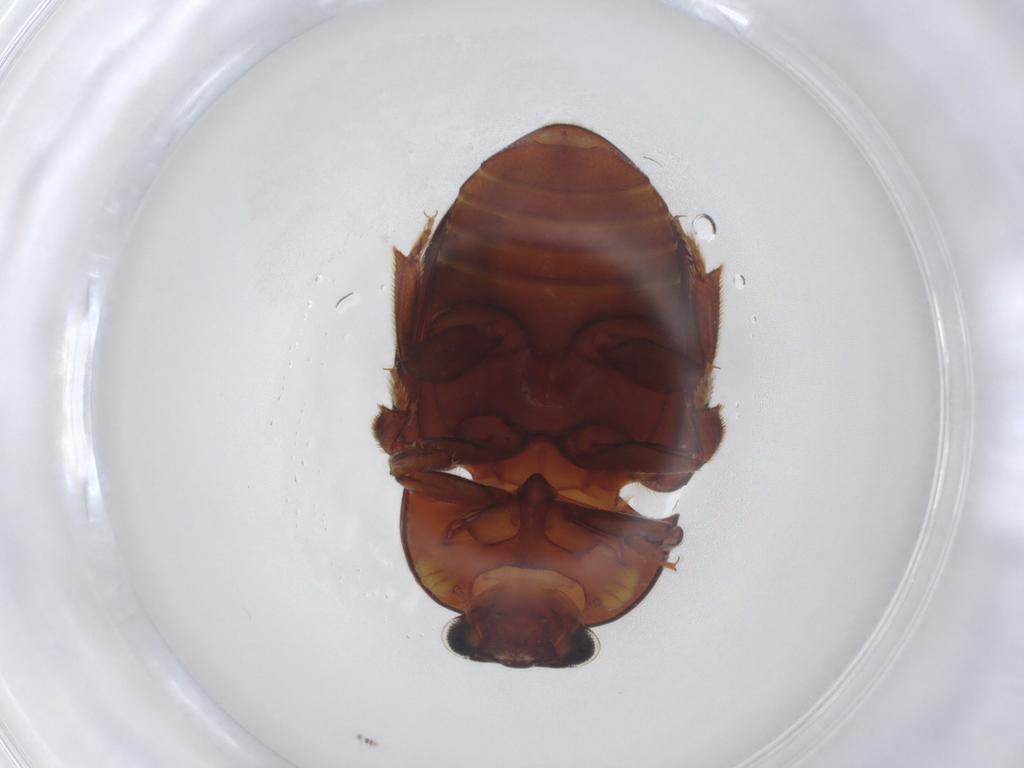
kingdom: Animalia
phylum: Arthropoda
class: Insecta
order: Coleoptera
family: Nitidulidae
